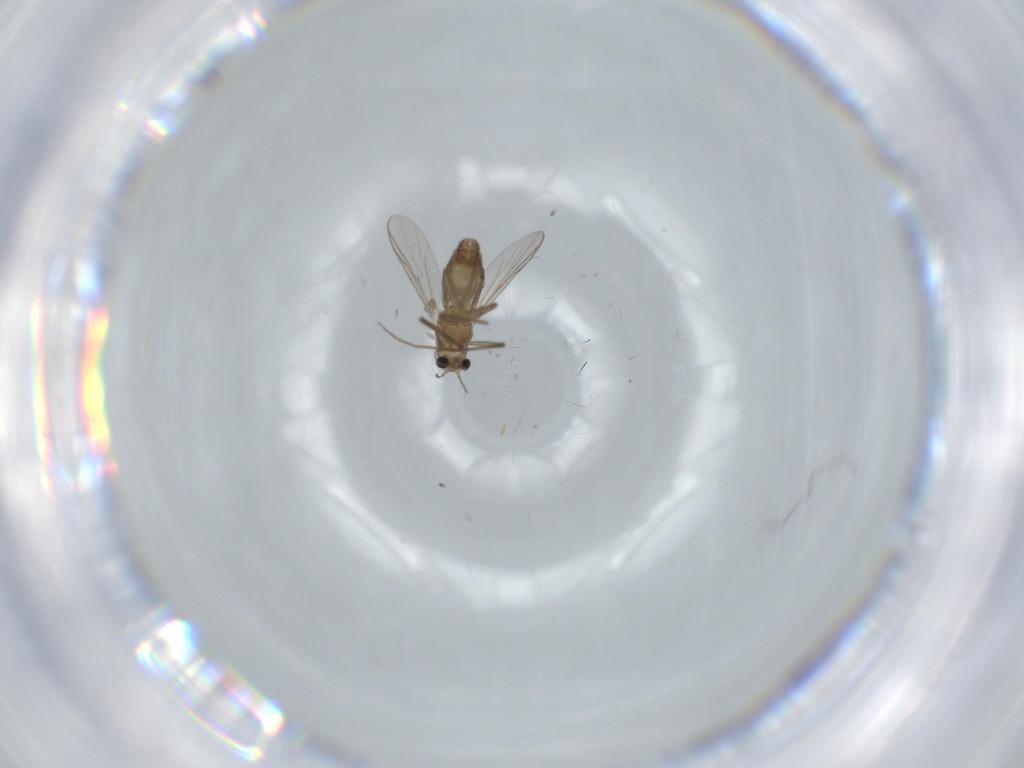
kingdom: Animalia
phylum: Arthropoda
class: Insecta
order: Diptera
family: Chironomidae
